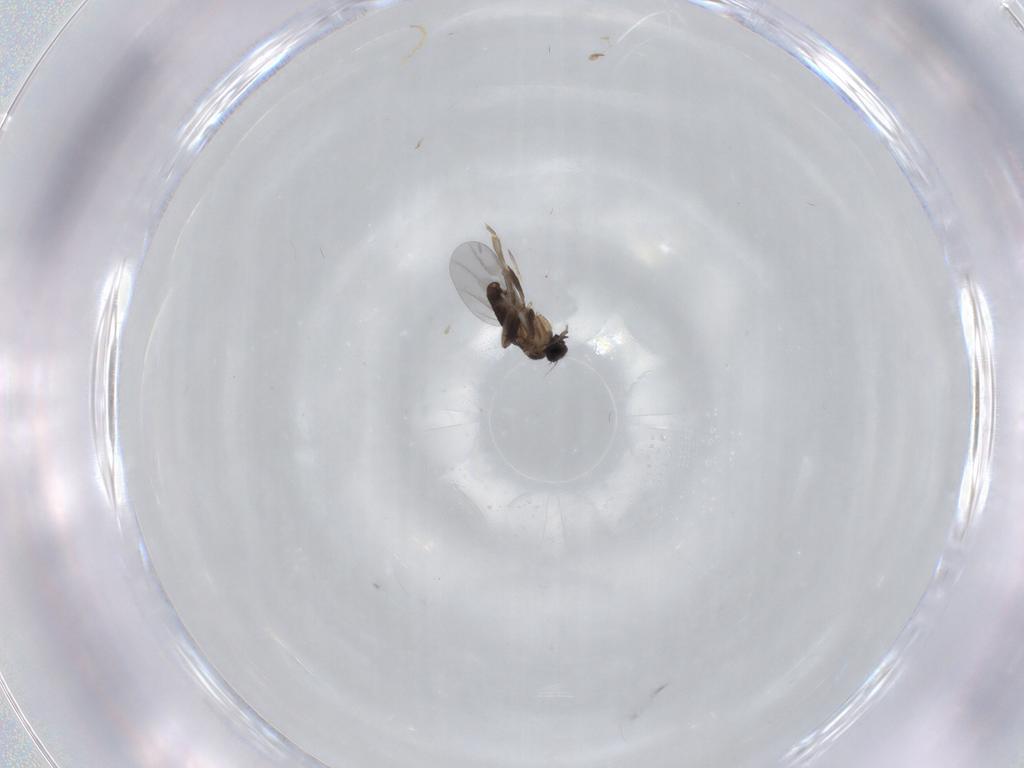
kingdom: Animalia
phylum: Arthropoda
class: Insecta
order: Diptera
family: Chironomidae
